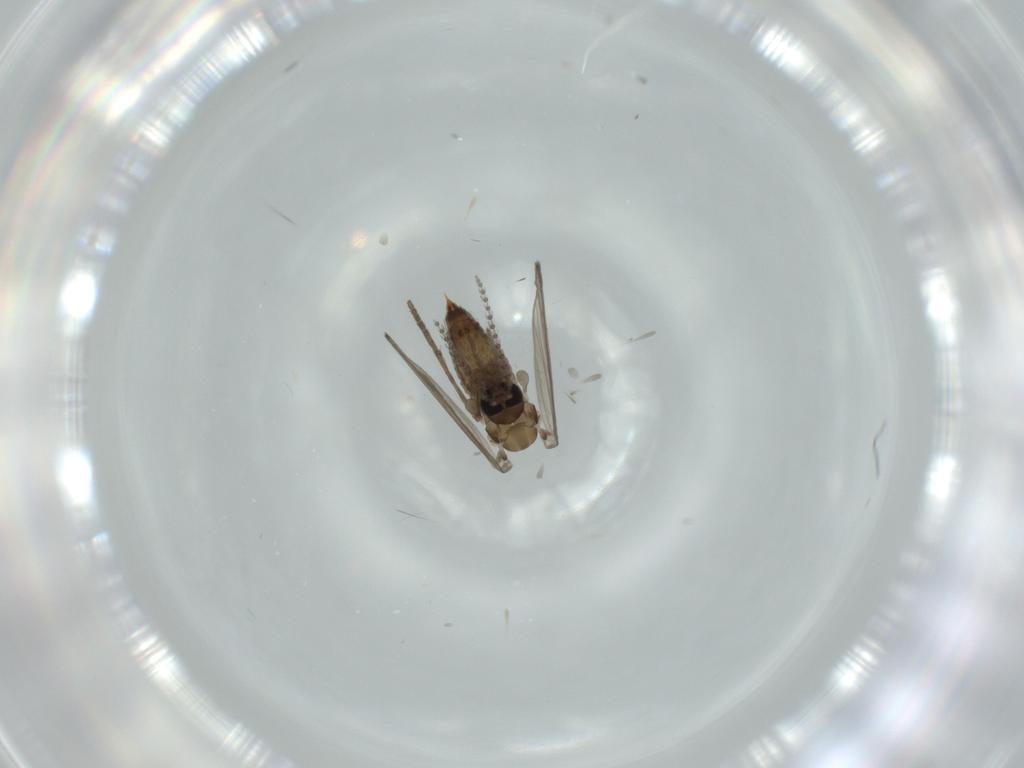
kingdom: Animalia
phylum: Arthropoda
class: Insecta
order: Diptera
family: Psychodidae
